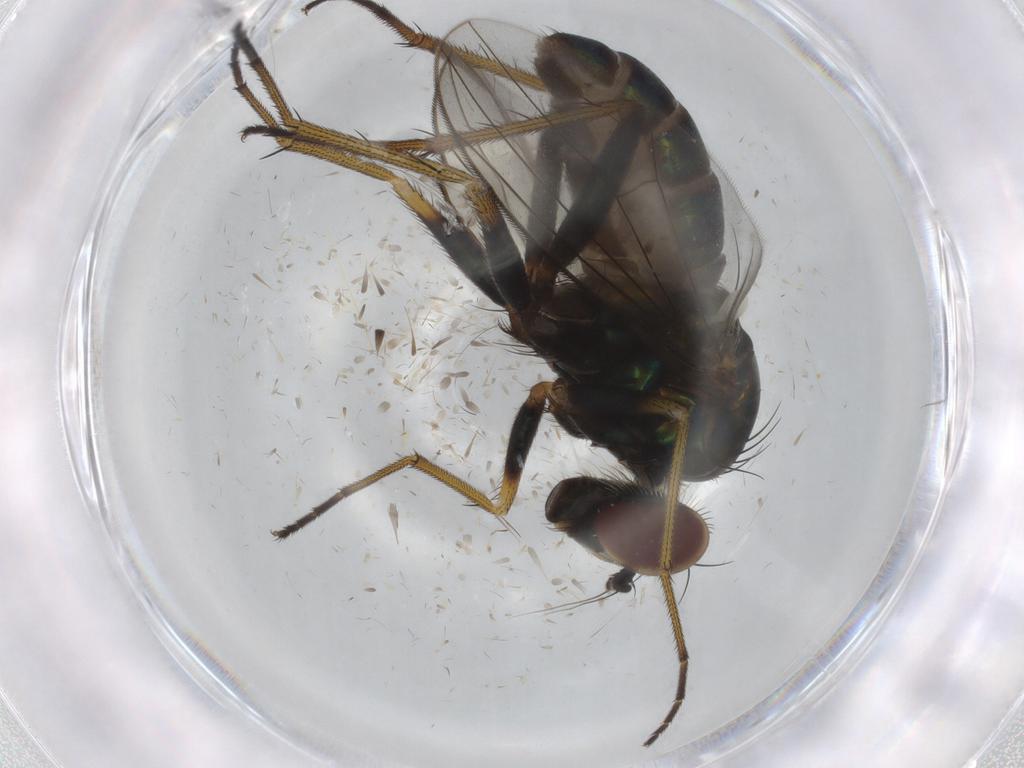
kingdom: Animalia
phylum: Arthropoda
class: Insecta
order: Diptera
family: Dolichopodidae
